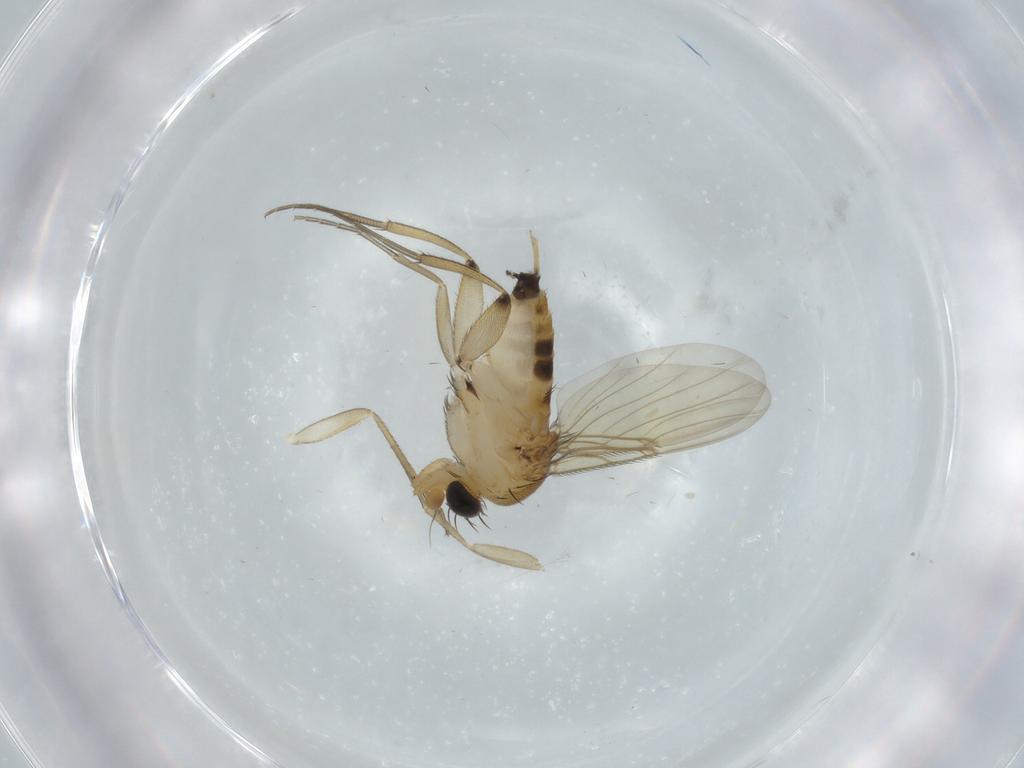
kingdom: Animalia
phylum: Arthropoda
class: Insecta
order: Diptera
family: Phoridae
